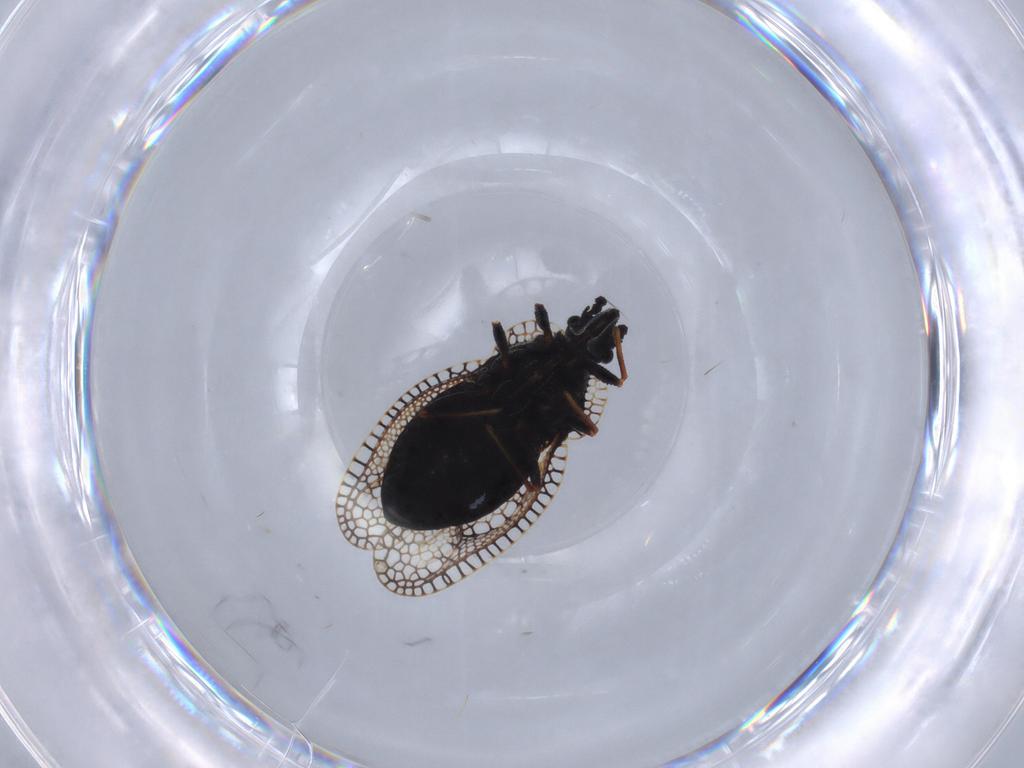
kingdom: Animalia
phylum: Arthropoda
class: Insecta
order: Hemiptera
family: Tingidae
